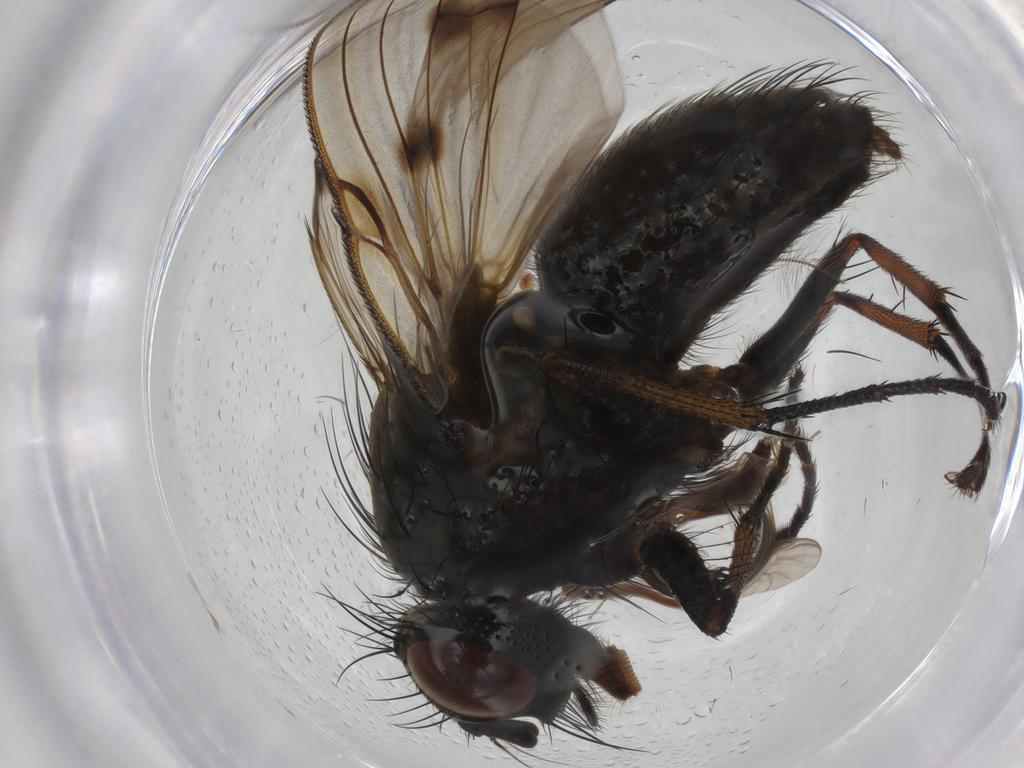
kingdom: Animalia
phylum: Arthropoda
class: Insecta
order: Diptera
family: Muscidae
